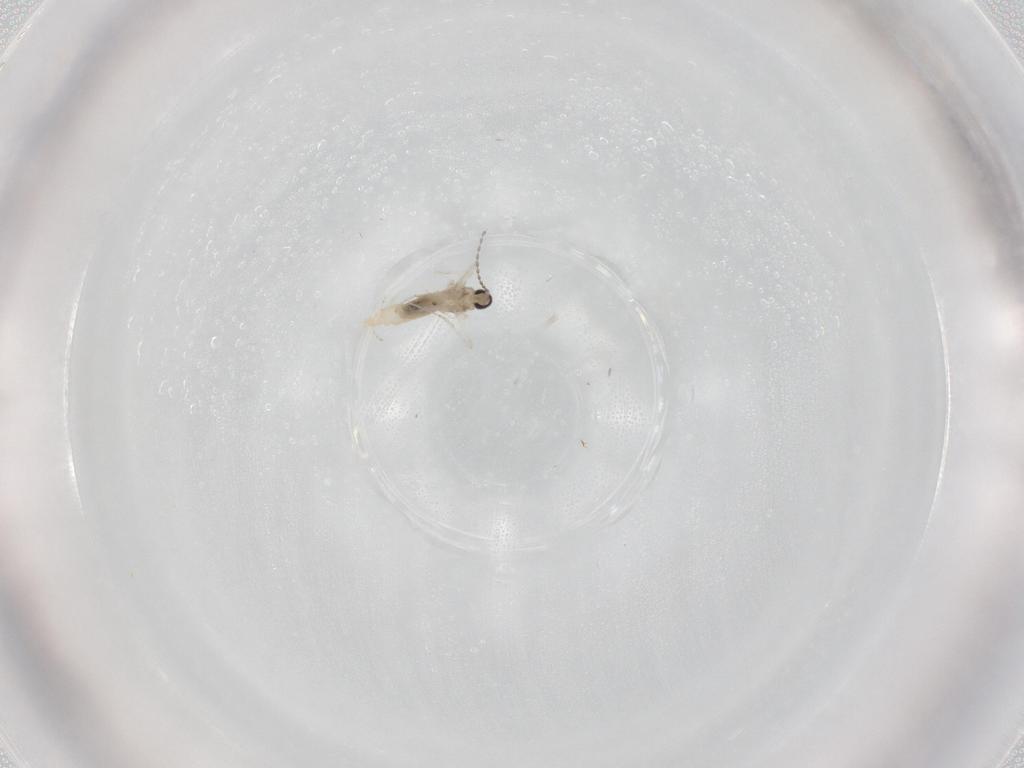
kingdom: Animalia
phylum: Arthropoda
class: Insecta
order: Diptera
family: Cecidomyiidae
